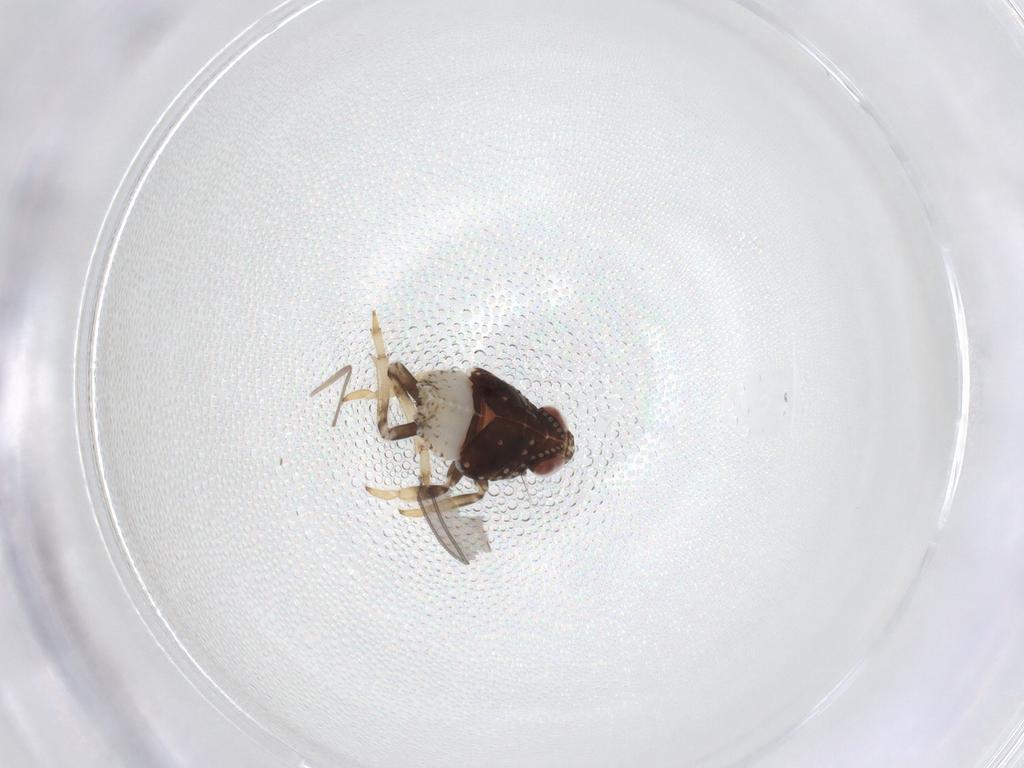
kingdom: Animalia
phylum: Arthropoda
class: Insecta
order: Hemiptera
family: Issidae
